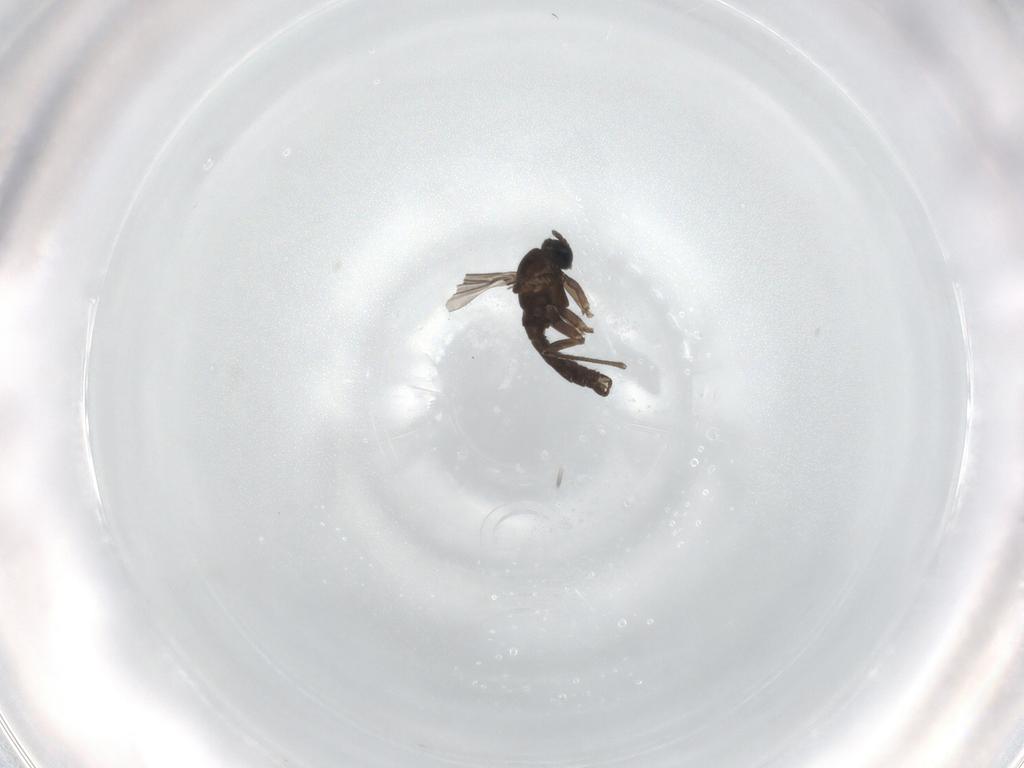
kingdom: Animalia
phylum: Arthropoda
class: Insecta
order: Diptera
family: Sciaridae
